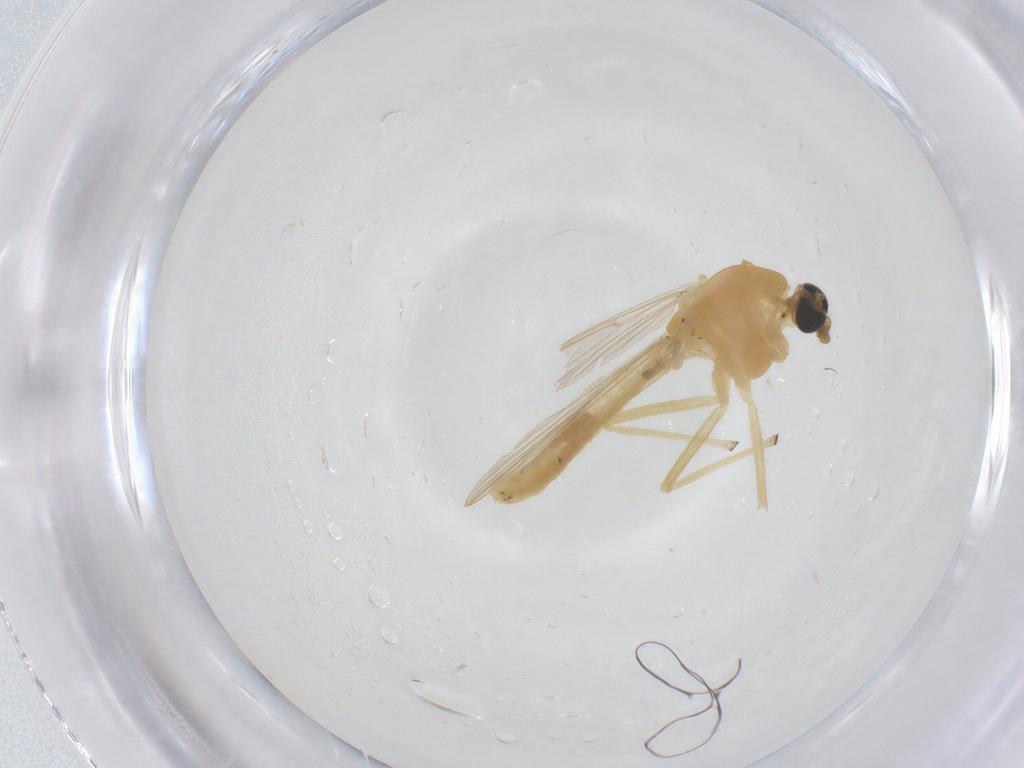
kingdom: Animalia
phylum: Arthropoda
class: Insecta
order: Diptera
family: Chironomidae
